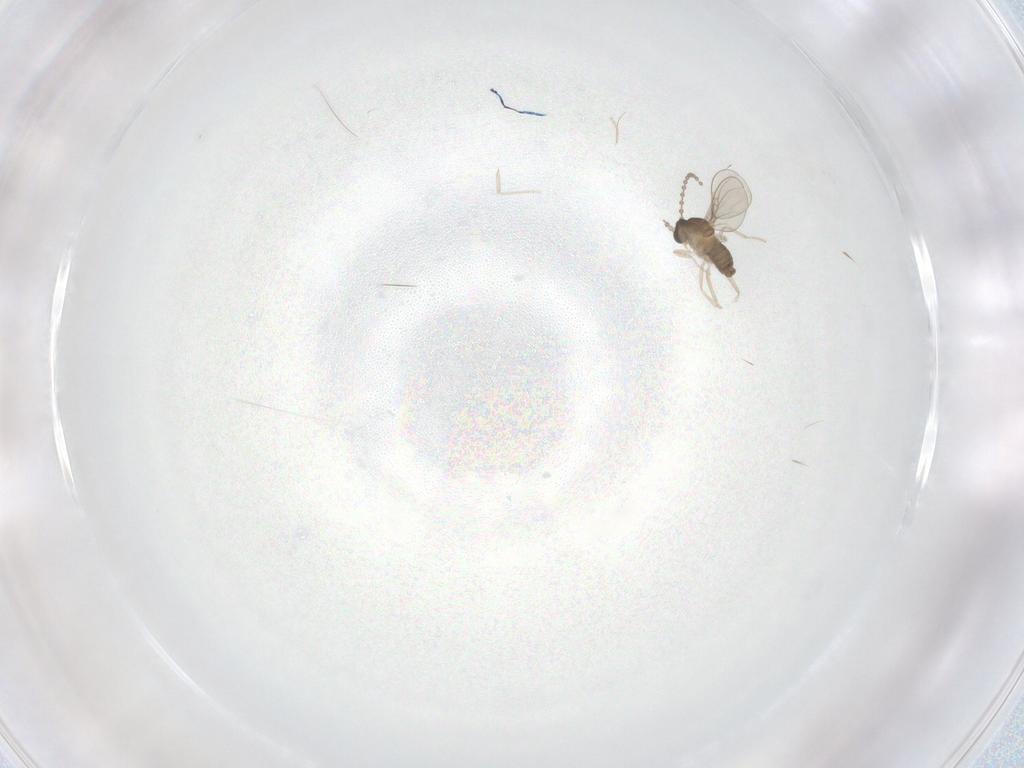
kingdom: Animalia
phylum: Arthropoda
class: Insecta
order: Diptera
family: Cecidomyiidae
